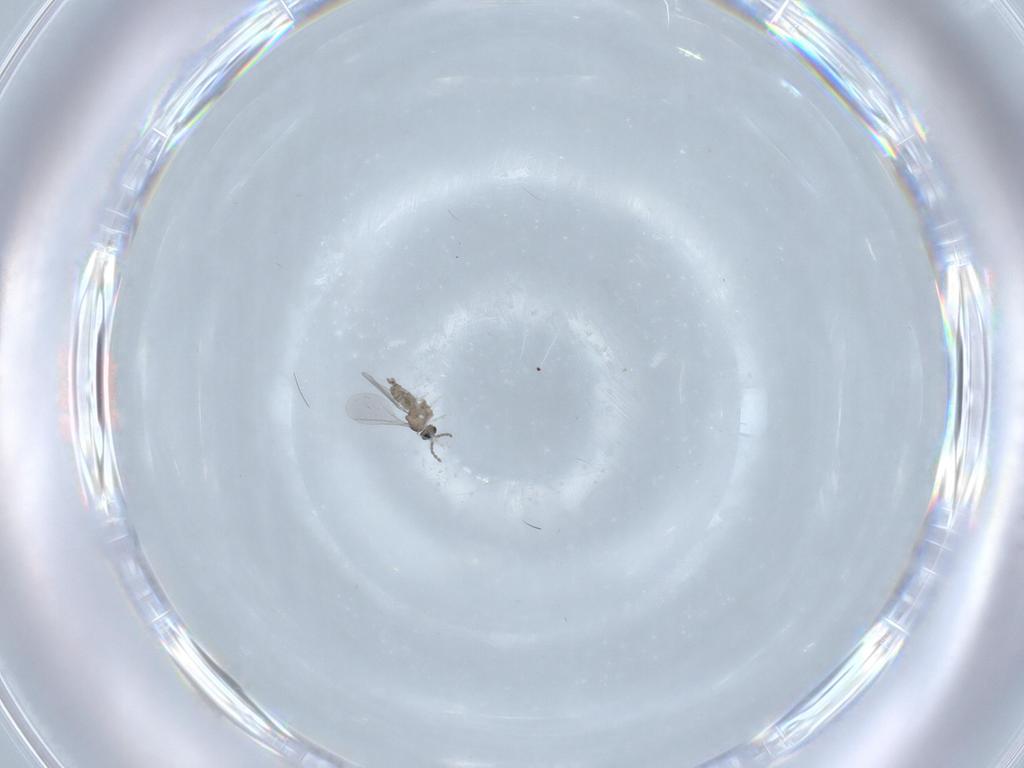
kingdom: Animalia
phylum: Arthropoda
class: Insecta
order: Diptera
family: Cecidomyiidae
